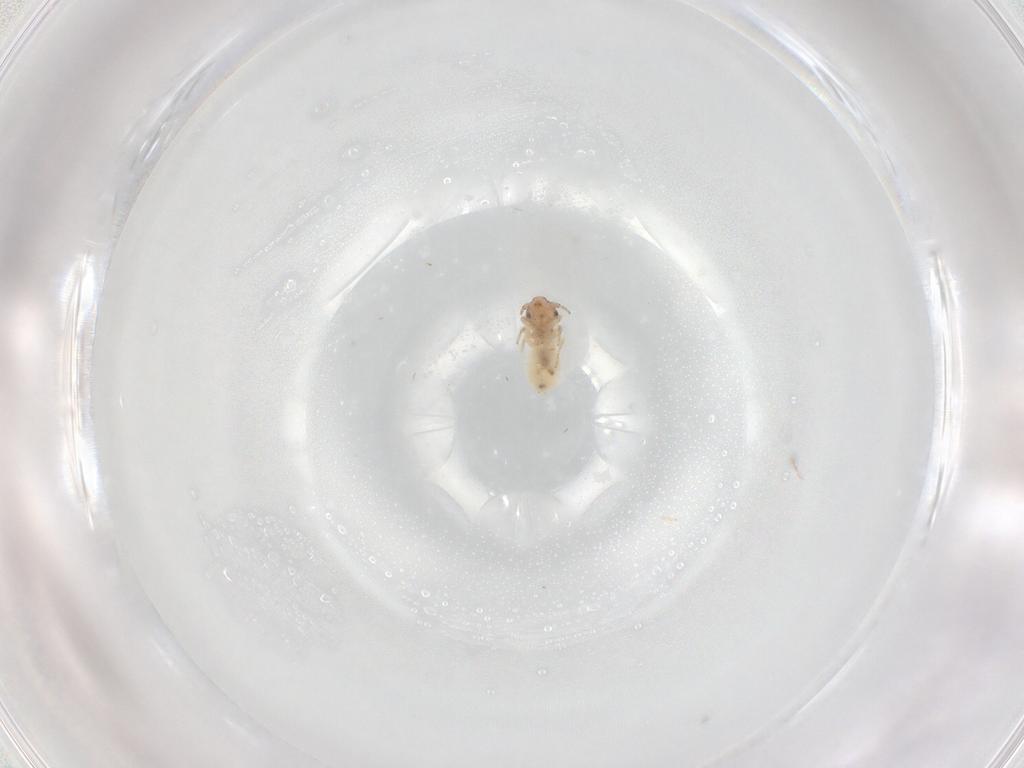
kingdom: Animalia
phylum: Arthropoda
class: Insecta
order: Psocodea
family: Lepidopsocidae
